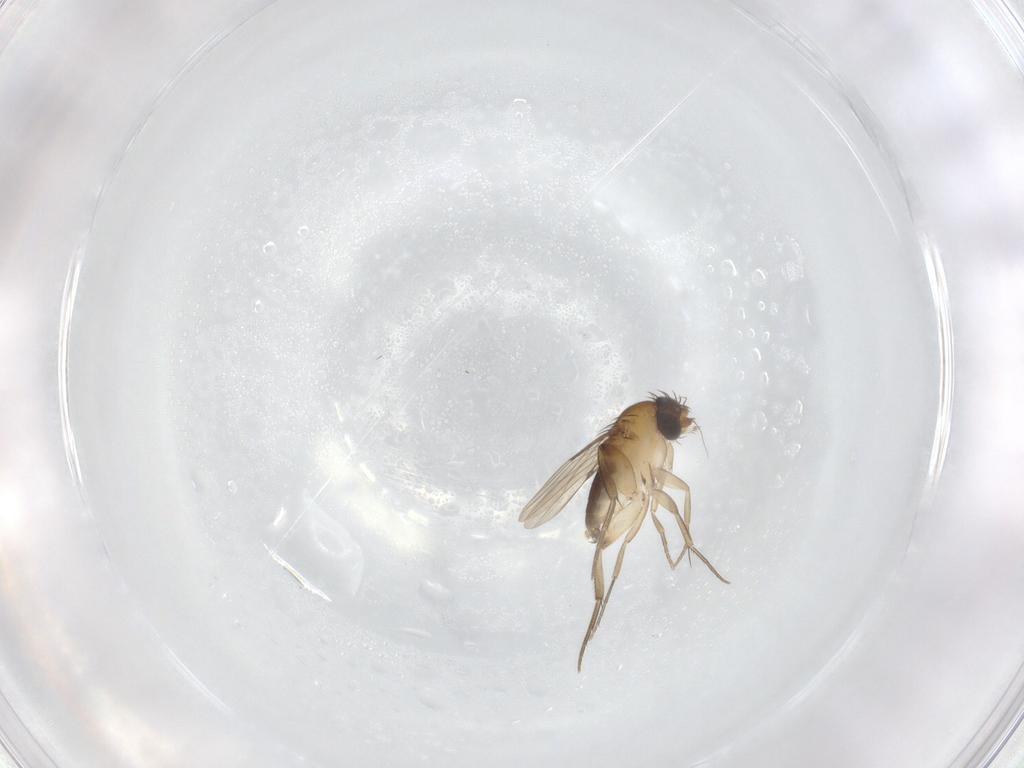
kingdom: Animalia
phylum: Arthropoda
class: Insecta
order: Diptera
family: Phoridae
